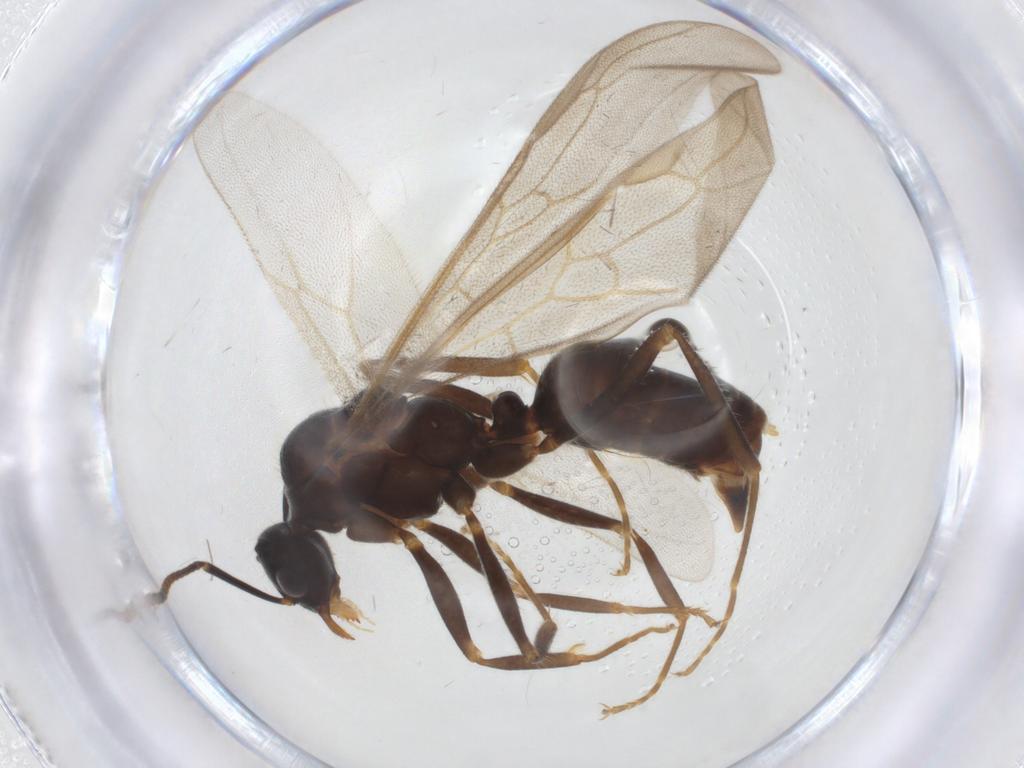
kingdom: Animalia
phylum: Arthropoda
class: Insecta
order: Hymenoptera
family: Formicidae
